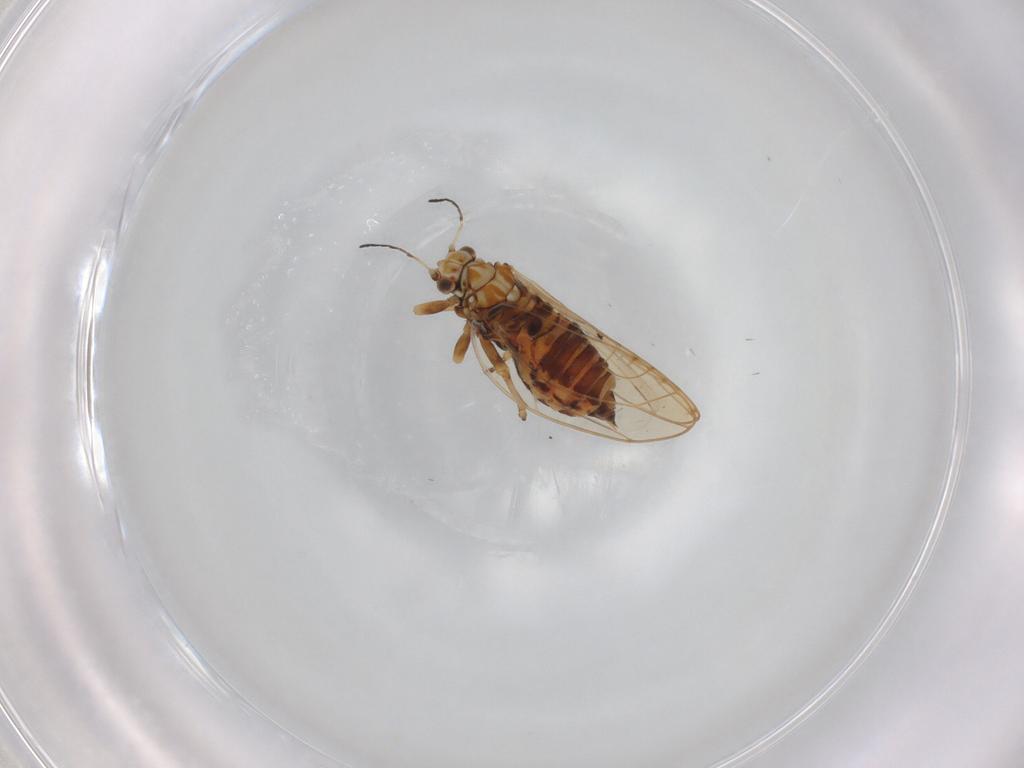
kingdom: Animalia
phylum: Arthropoda
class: Insecta
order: Hemiptera
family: Aphididae
